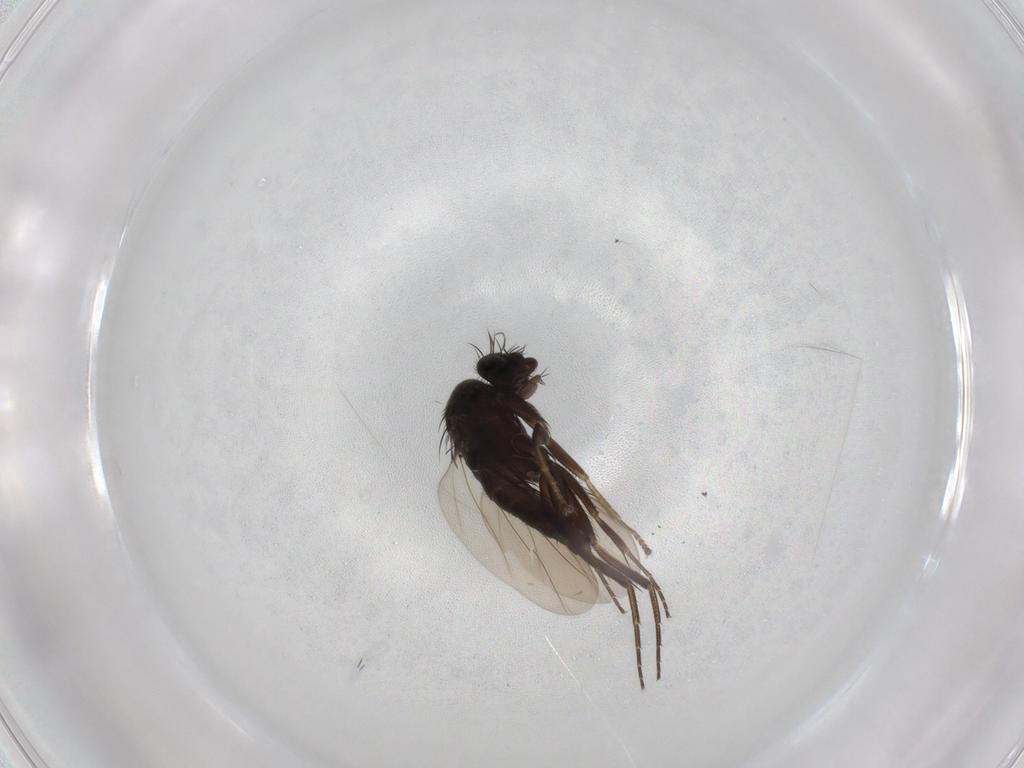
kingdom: Animalia
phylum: Arthropoda
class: Insecta
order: Diptera
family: Phoridae
